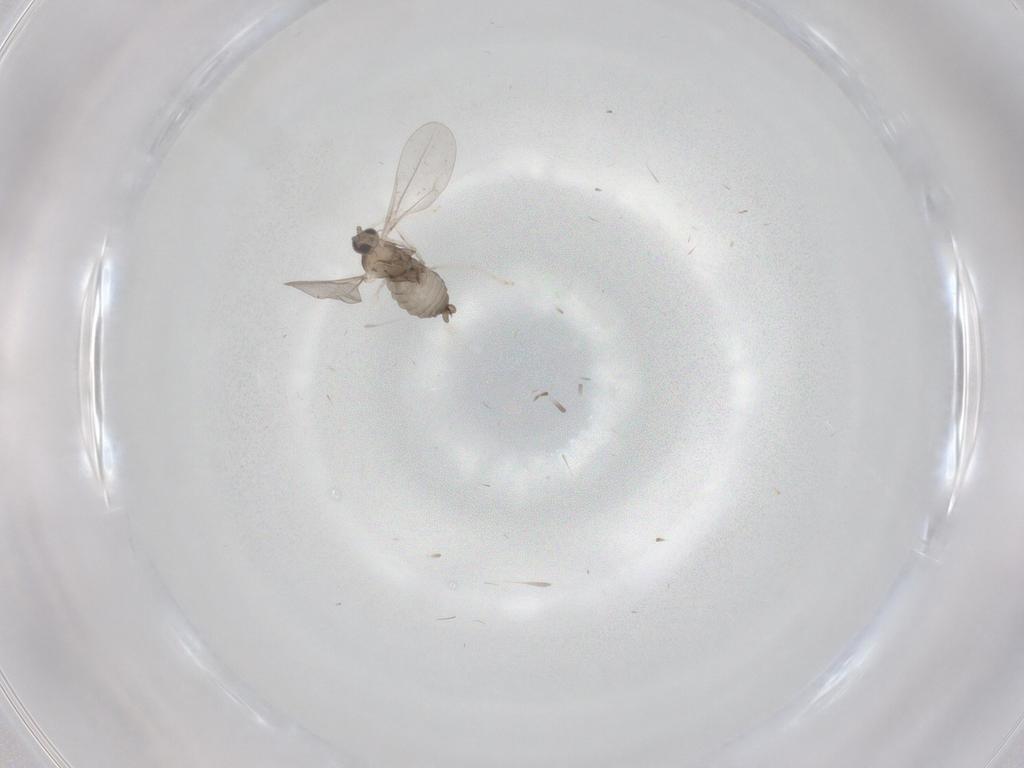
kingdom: Animalia
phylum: Arthropoda
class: Insecta
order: Diptera
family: Cecidomyiidae
